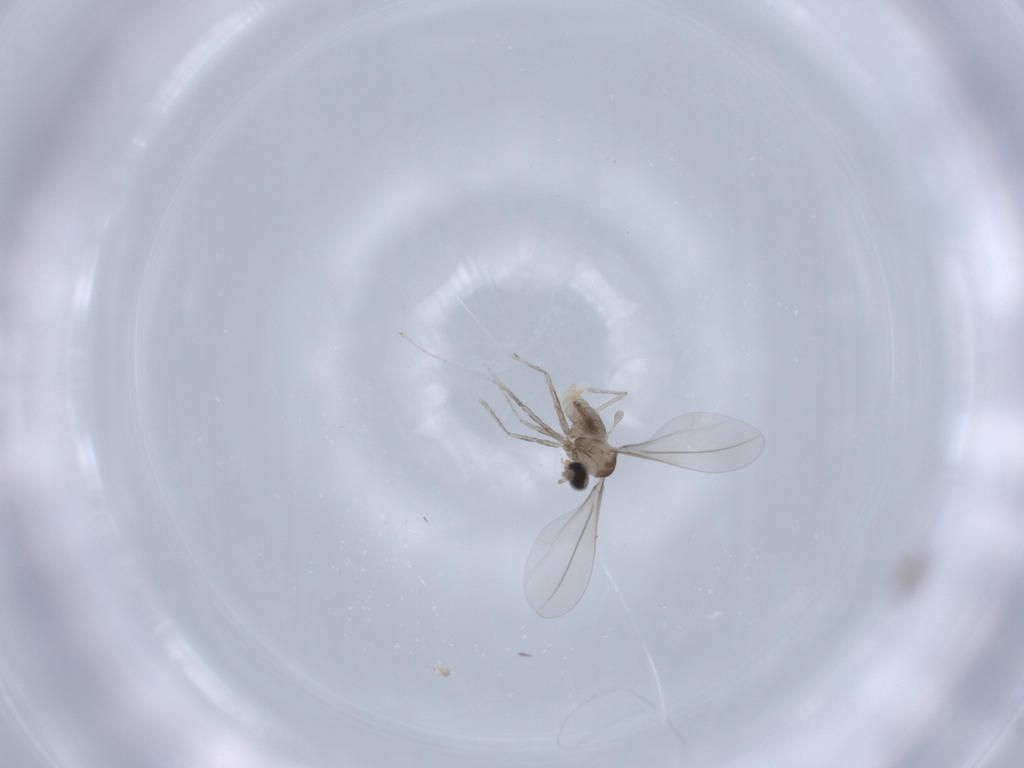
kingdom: Animalia
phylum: Arthropoda
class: Insecta
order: Diptera
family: Cecidomyiidae
